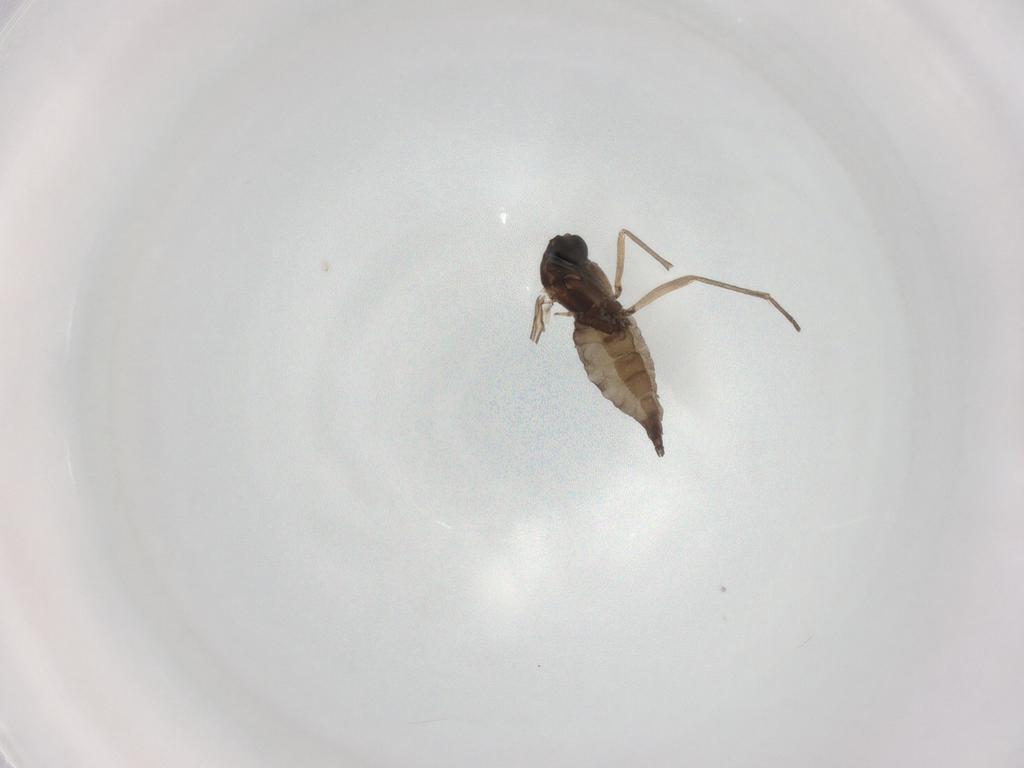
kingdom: Animalia
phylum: Arthropoda
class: Insecta
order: Diptera
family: Sciaridae
